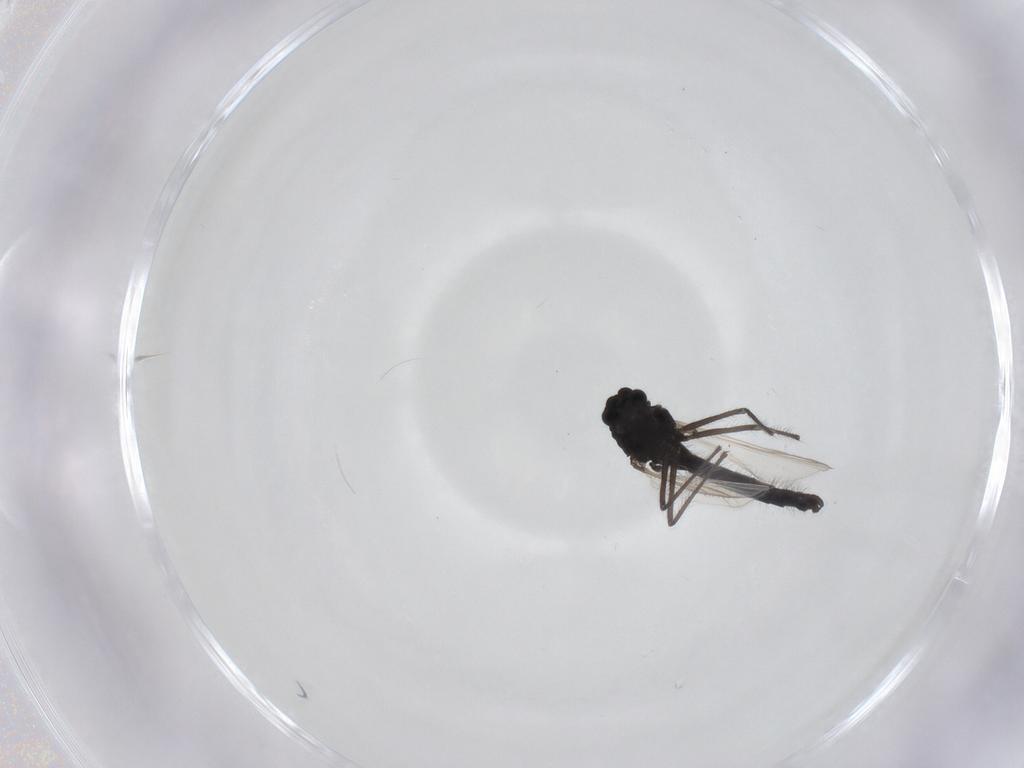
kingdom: Animalia
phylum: Arthropoda
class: Insecta
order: Diptera
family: Chironomidae
